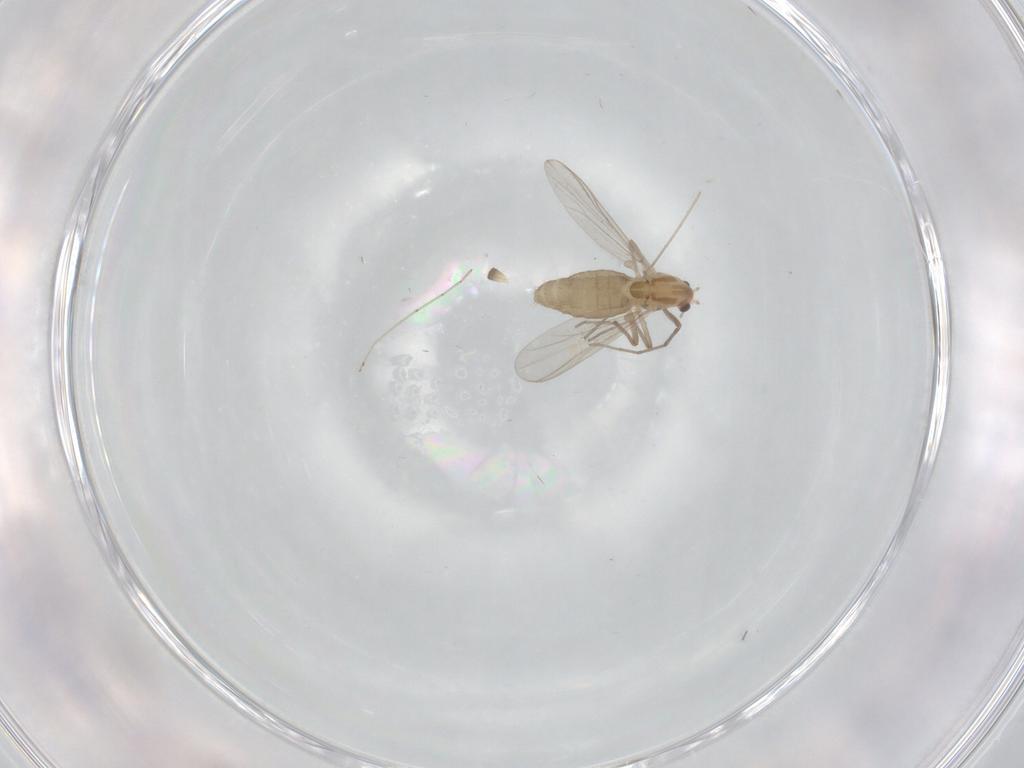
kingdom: Animalia
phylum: Arthropoda
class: Insecta
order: Diptera
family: Chironomidae
